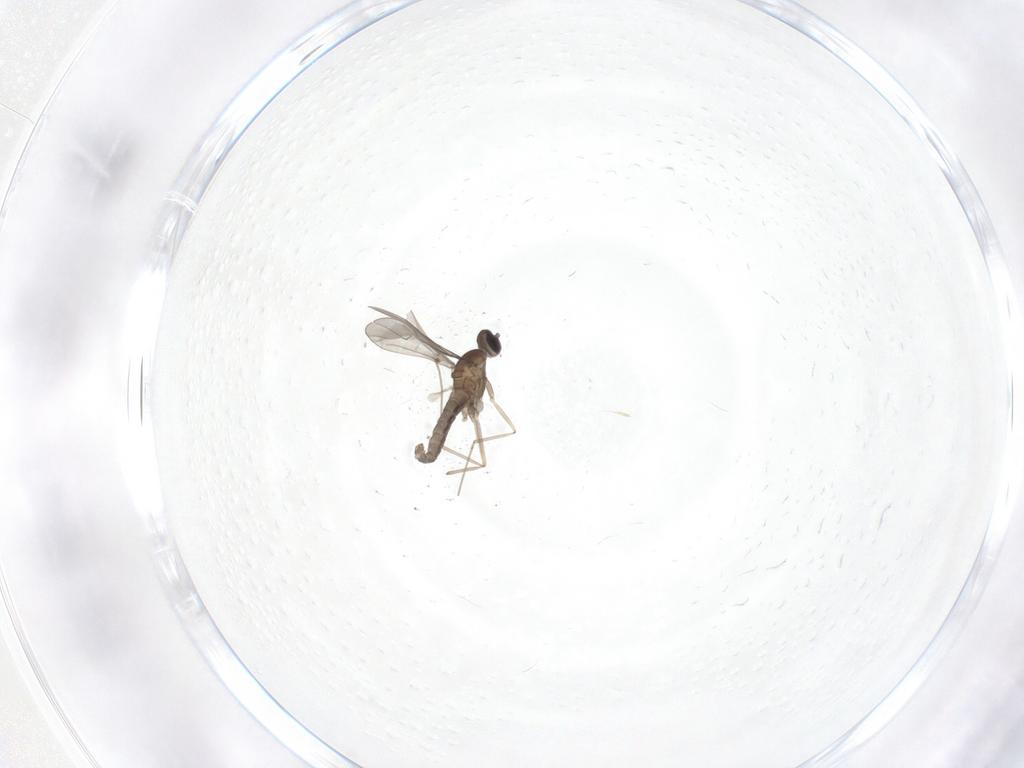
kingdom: Animalia
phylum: Arthropoda
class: Insecta
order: Diptera
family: Cecidomyiidae
